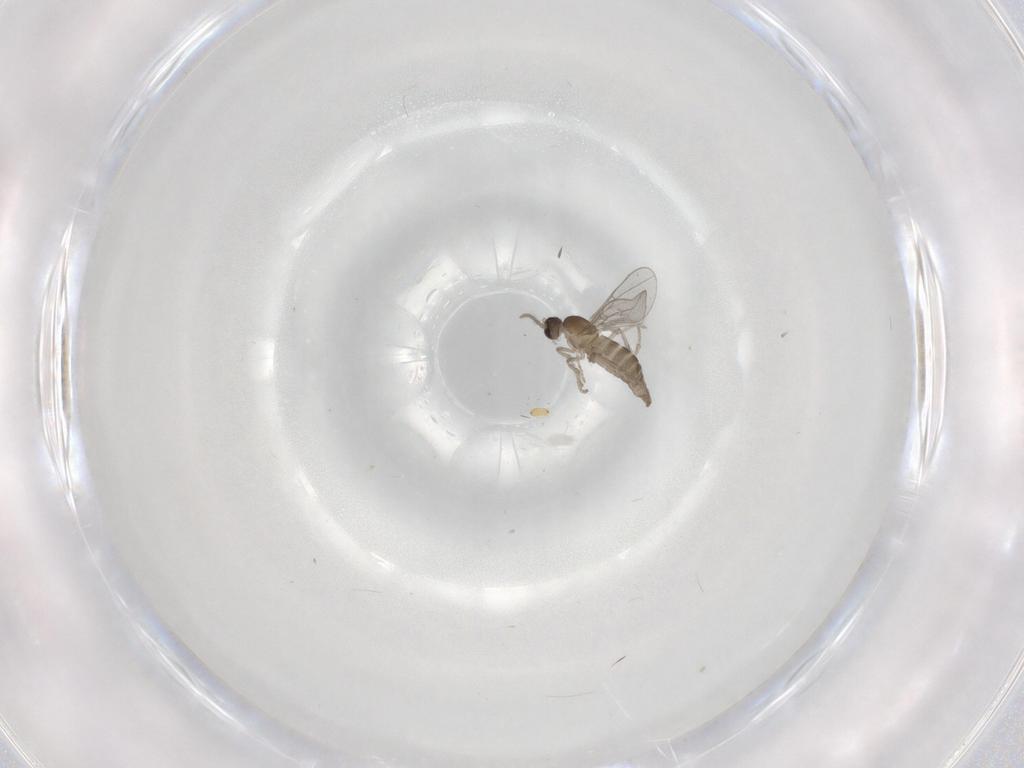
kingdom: Animalia
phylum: Arthropoda
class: Insecta
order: Diptera
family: Cecidomyiidae
